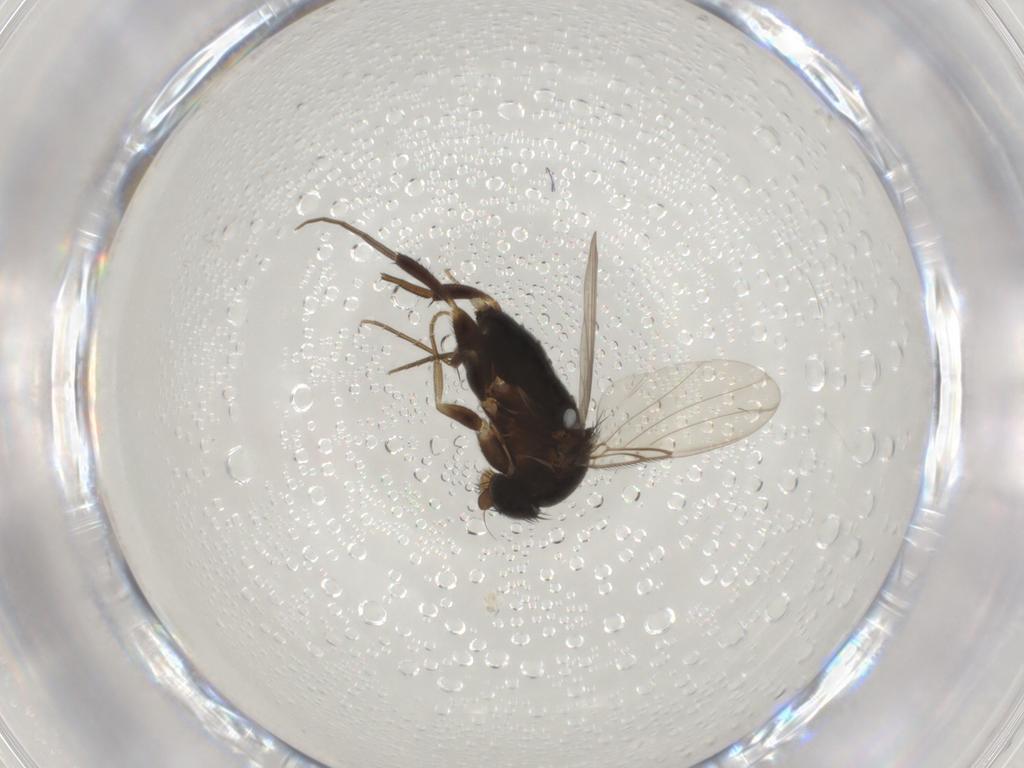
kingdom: Animalia
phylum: Arthropoda
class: Insecta
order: Diptera
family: Phoridae
